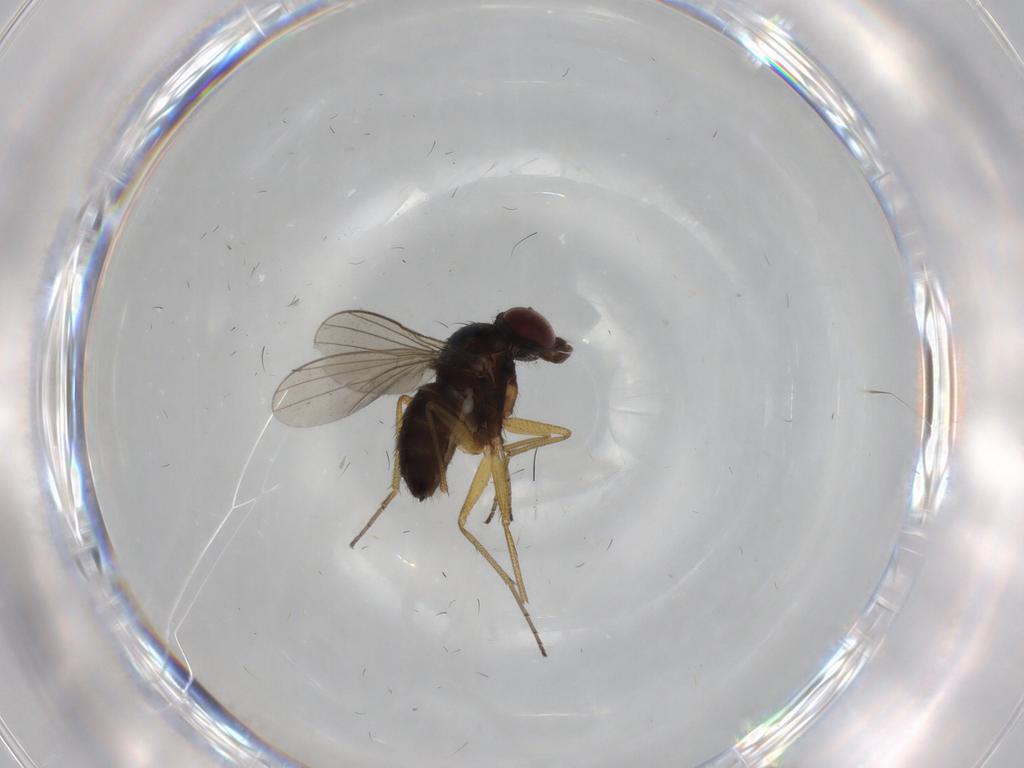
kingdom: Animalia
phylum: Arthropoda
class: Insecta
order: Diptera
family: Dolichopodidae
